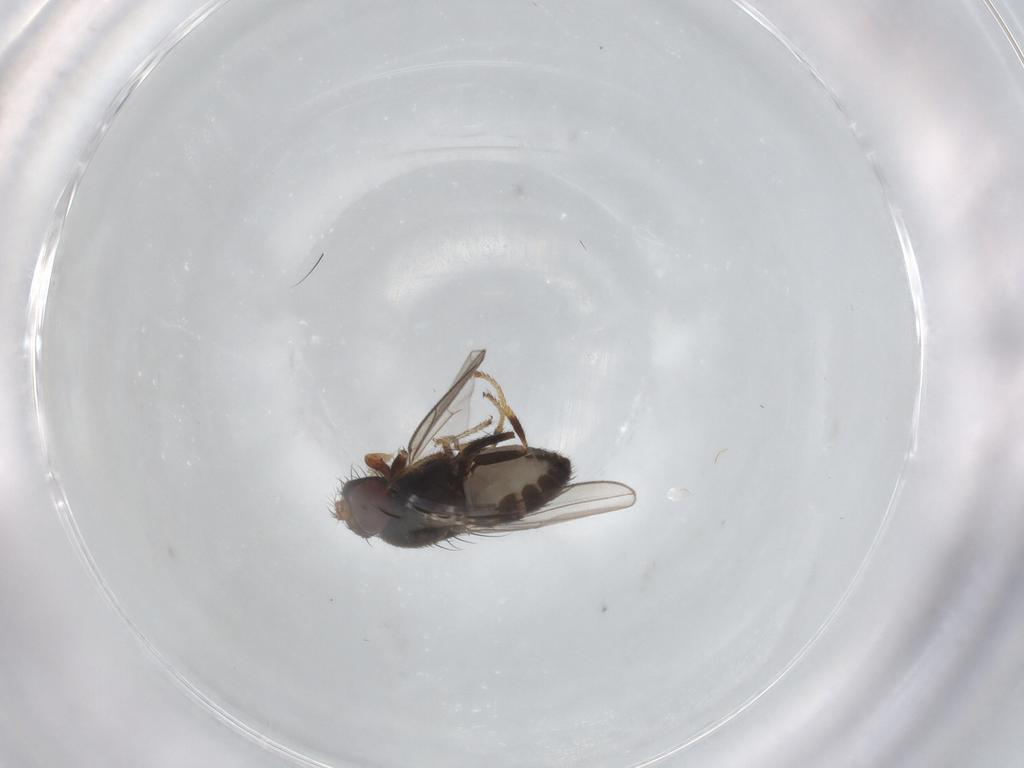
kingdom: Animalia
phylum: Arthropoda
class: Insecta
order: Diptera
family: Ephydridae
